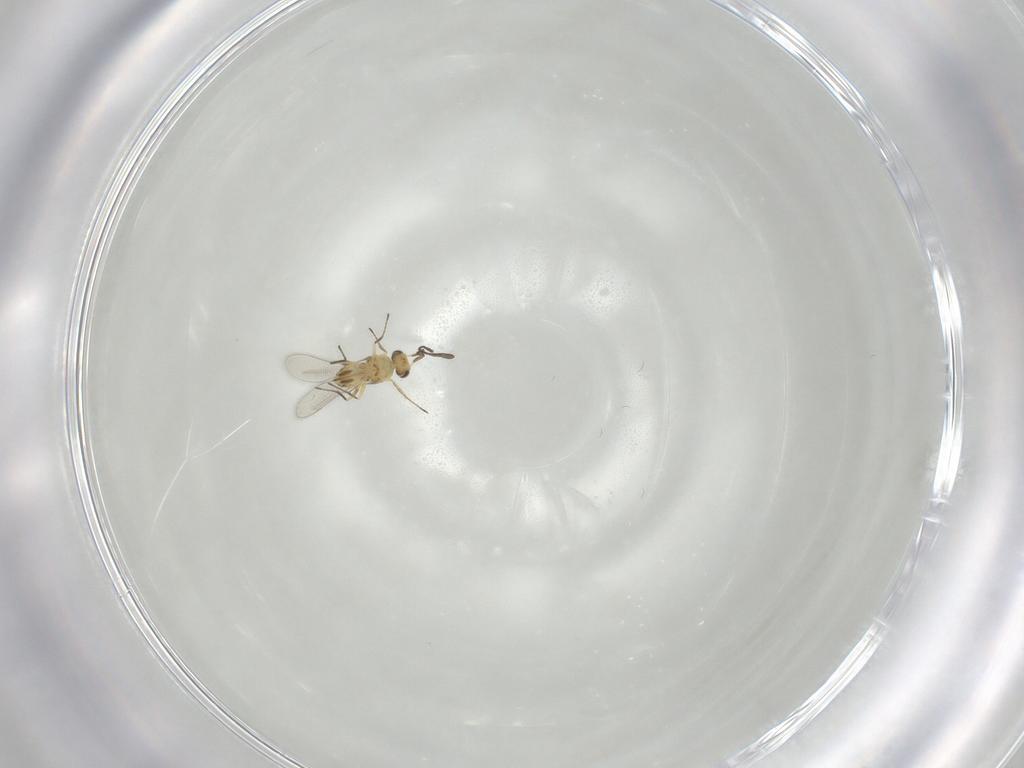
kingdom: Animalia
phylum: Arthropoda
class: Insecta
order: Hymenoptera
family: Mymaridae
